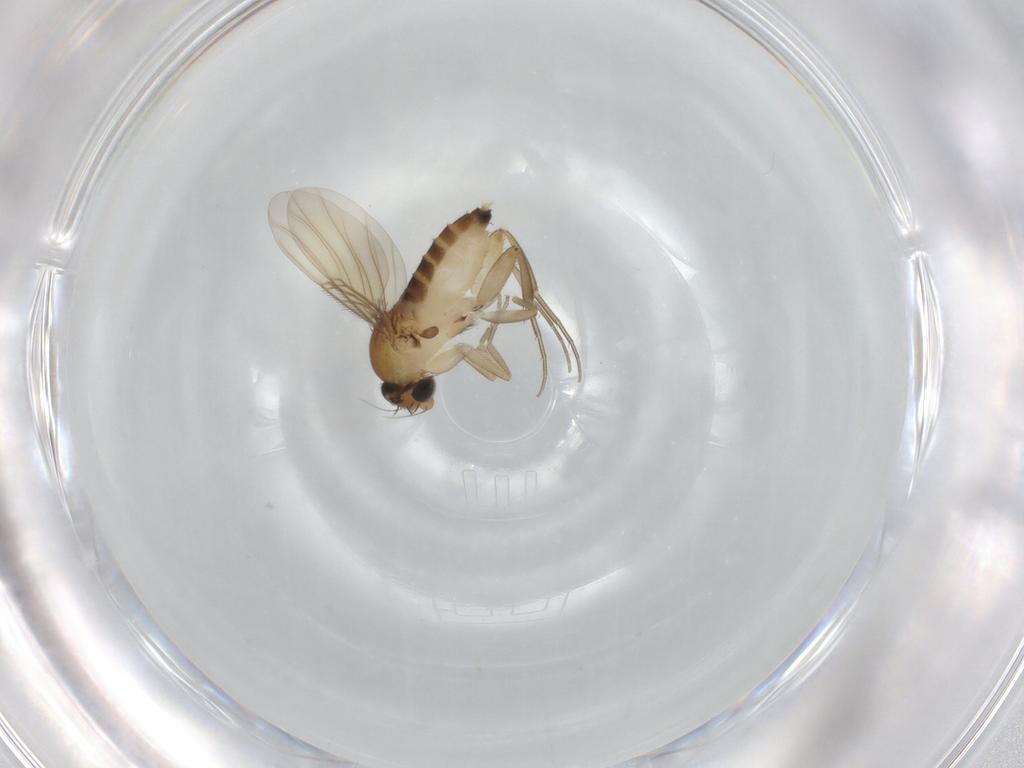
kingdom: Animalia
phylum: Arthropoda
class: Insecta
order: Diptera
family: Phoridae
